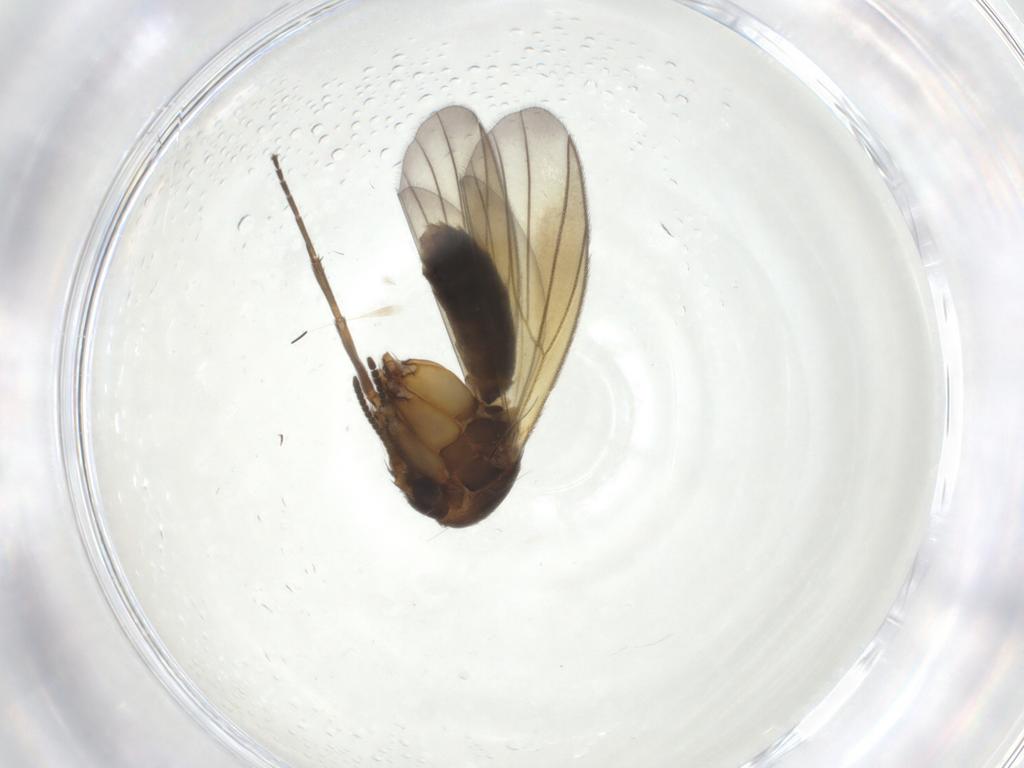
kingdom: Animalia
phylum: Arthropoda
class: Insecta
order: Diptera
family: Mycetophilidae
